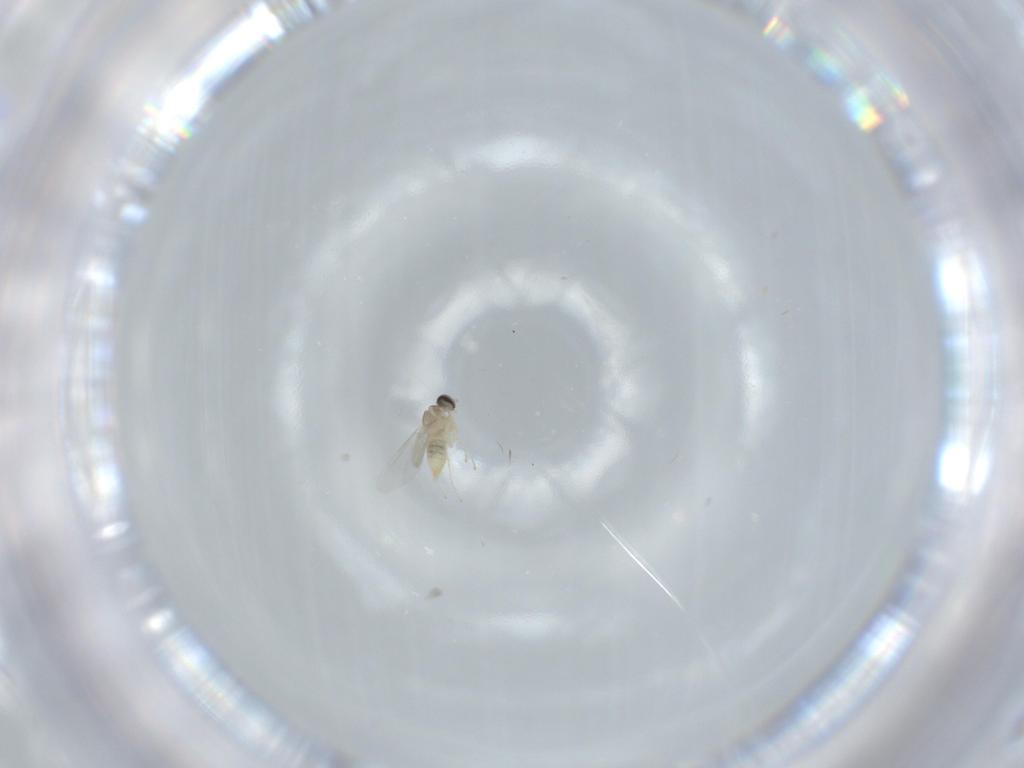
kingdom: Animalia
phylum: Arthropoda
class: Insecta
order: Diptera
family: Cecidomyiidae
